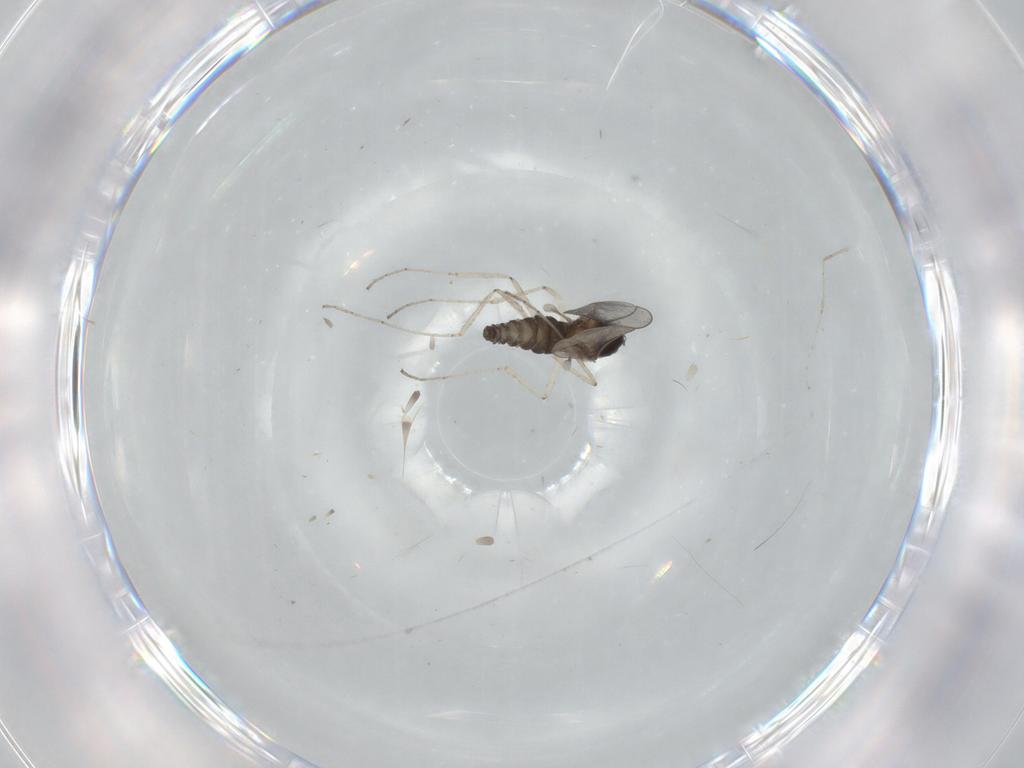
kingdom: Animalia
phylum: Arthropoda
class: Insecta
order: Diptera
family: Cecidomyiidae
